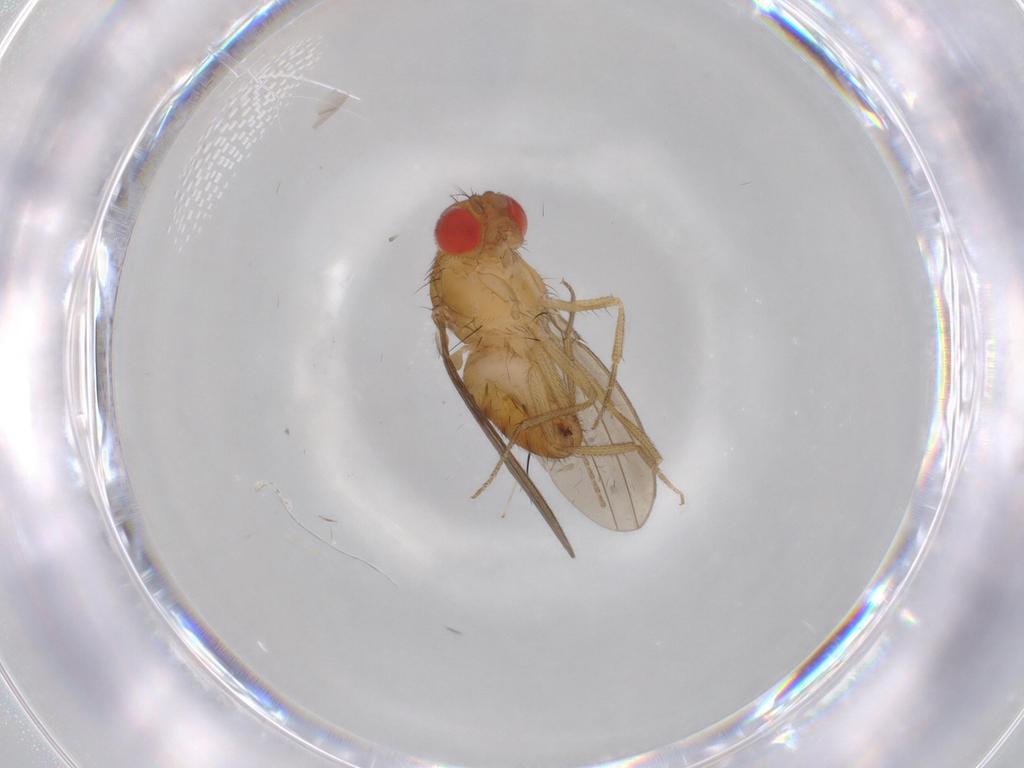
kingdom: Animalia
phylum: Arthropoda
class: Insecta
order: Diptera
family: Drosophilidae
